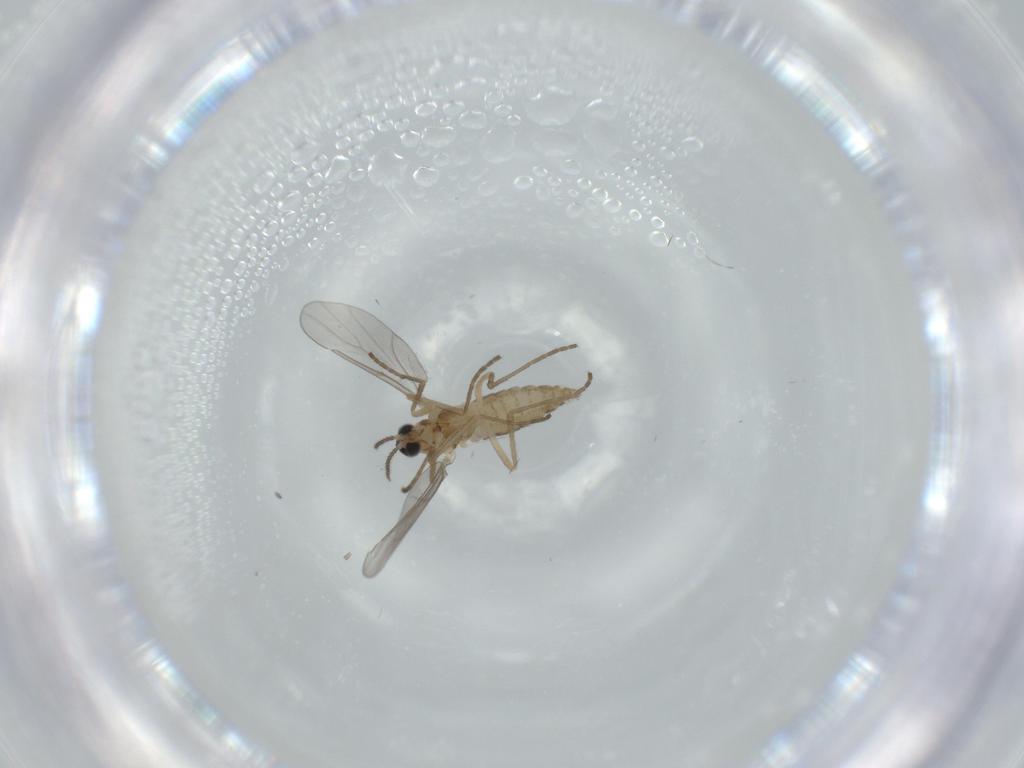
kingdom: Animalia
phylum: Arthropoda
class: Insecta
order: Diptera
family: Cecidomyiidae
